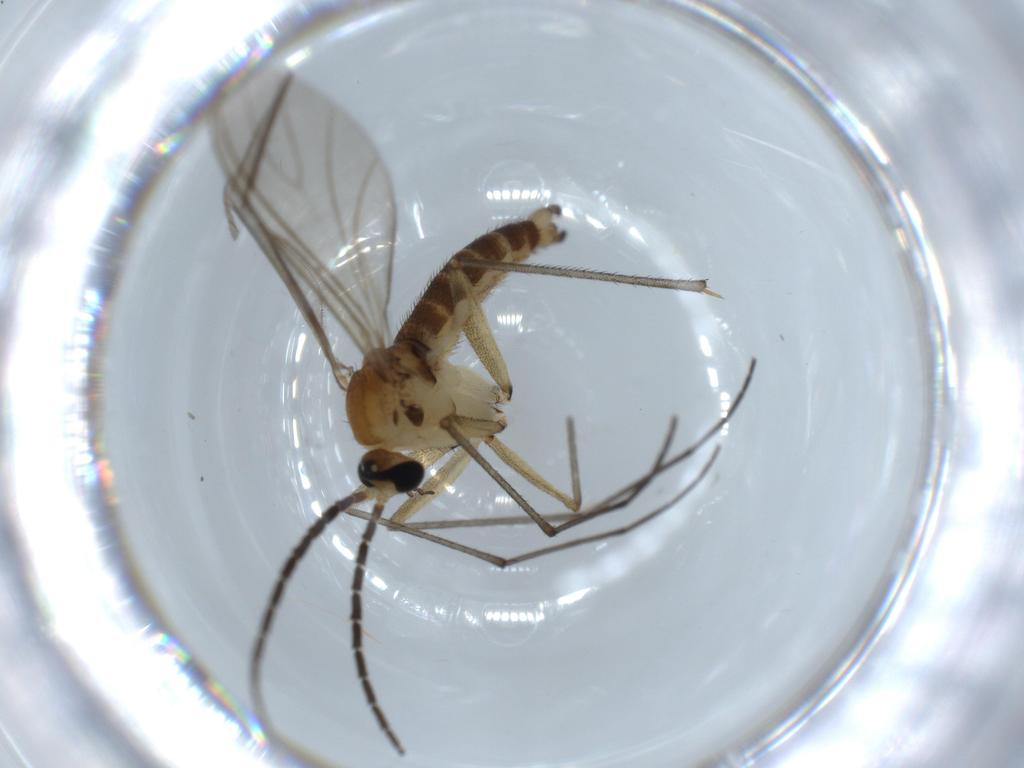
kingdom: Animalia
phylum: Arthropoda
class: Insecta
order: Diptera
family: Sciaridae
